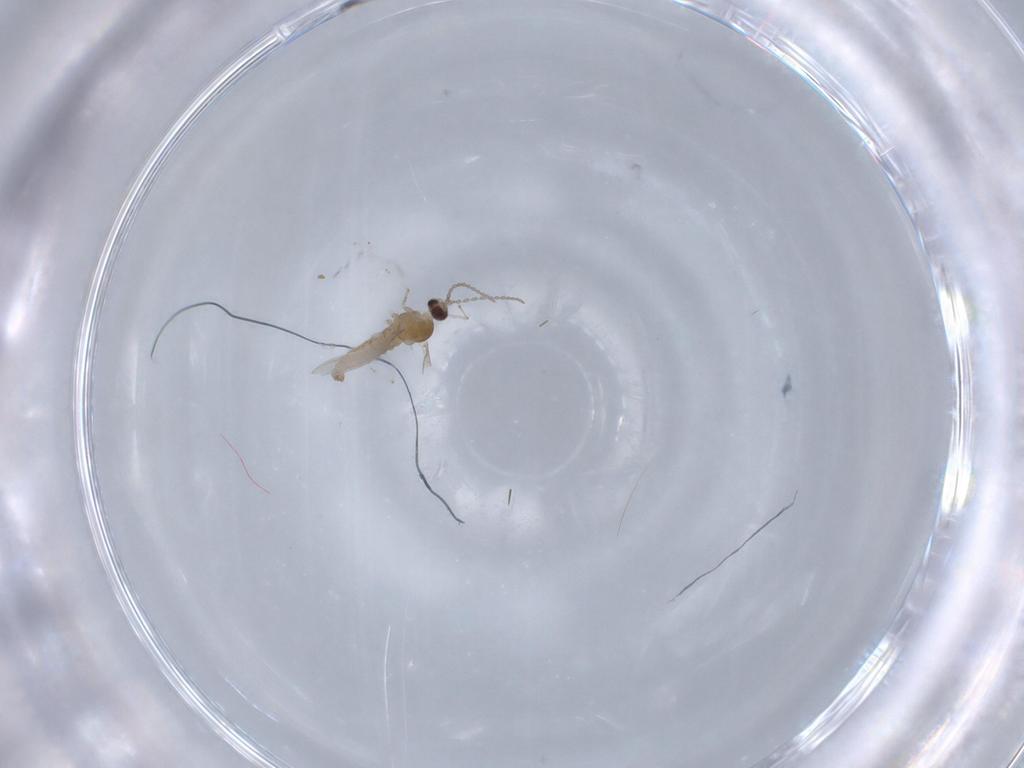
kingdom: Animalia
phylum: Arthropoda
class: Insecta
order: Diptera
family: Cecidomyiidae
